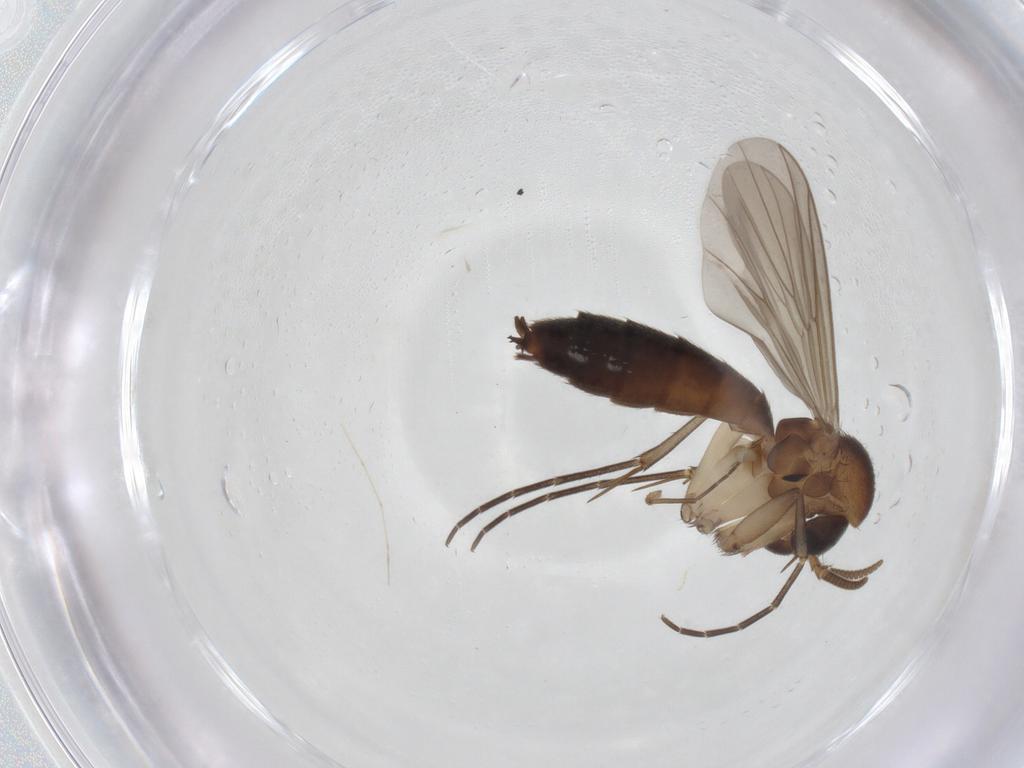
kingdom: Animalia
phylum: Arthropoda
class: Insecta
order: Diptera
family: Mycetophilidae
